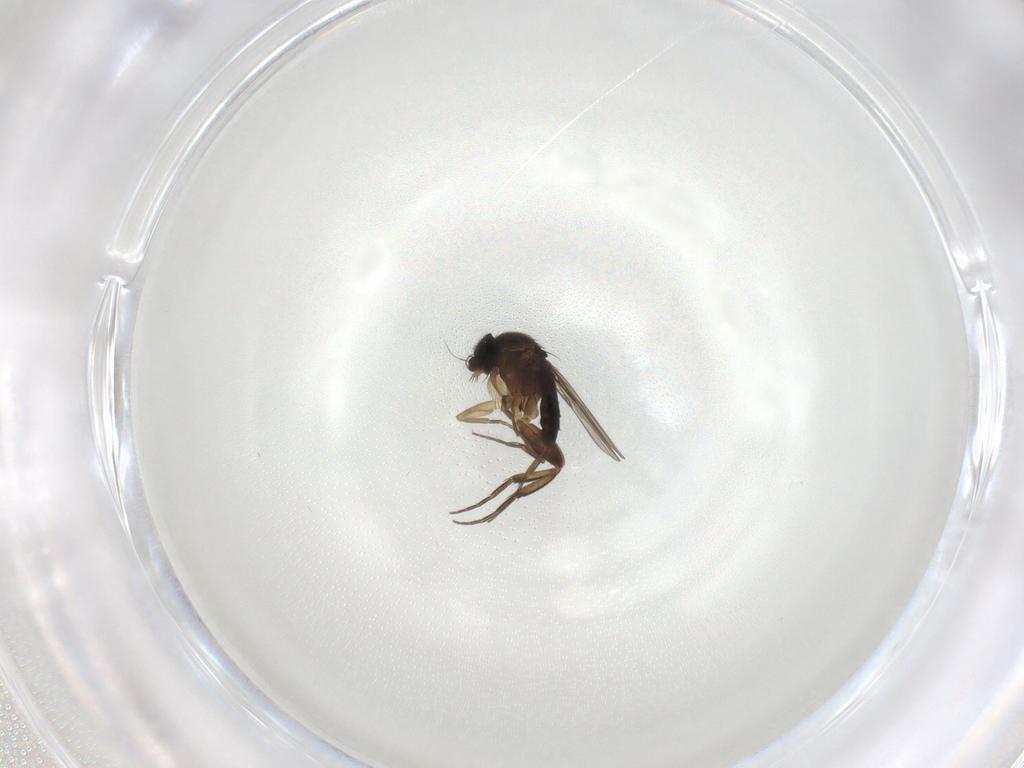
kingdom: Animalia
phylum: Arthropoda
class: Insecta
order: Diptera
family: Phoridae
